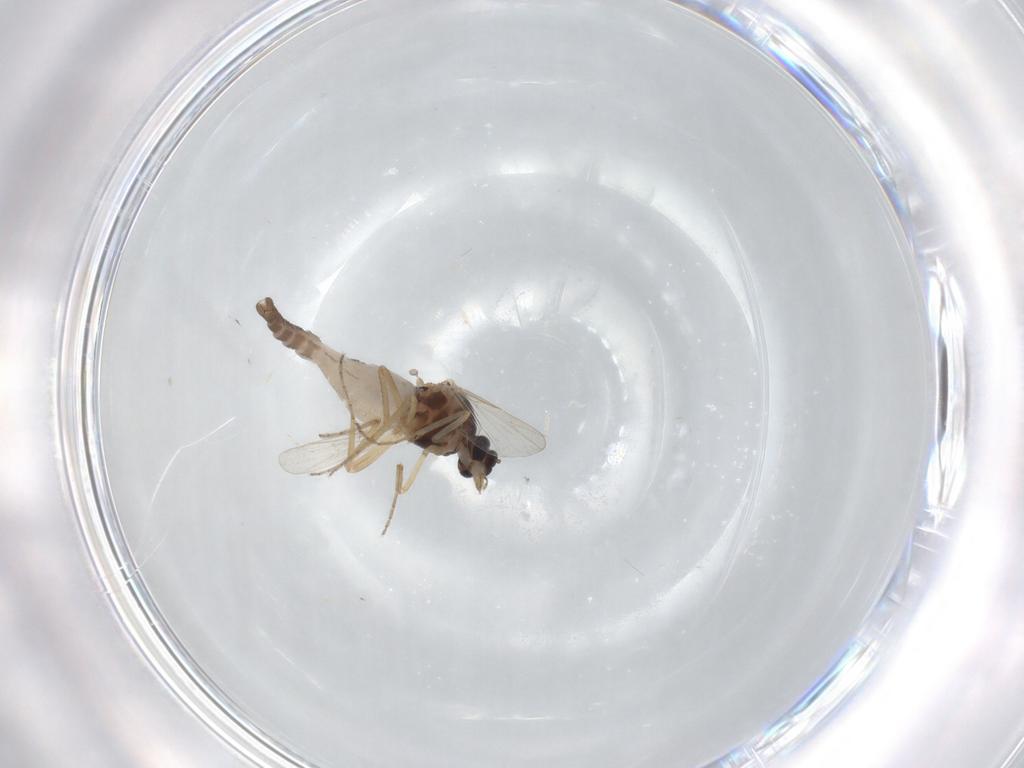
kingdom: Animalia
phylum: Arthropoda
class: Insecta
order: Diptera
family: Ceratopogonidae
